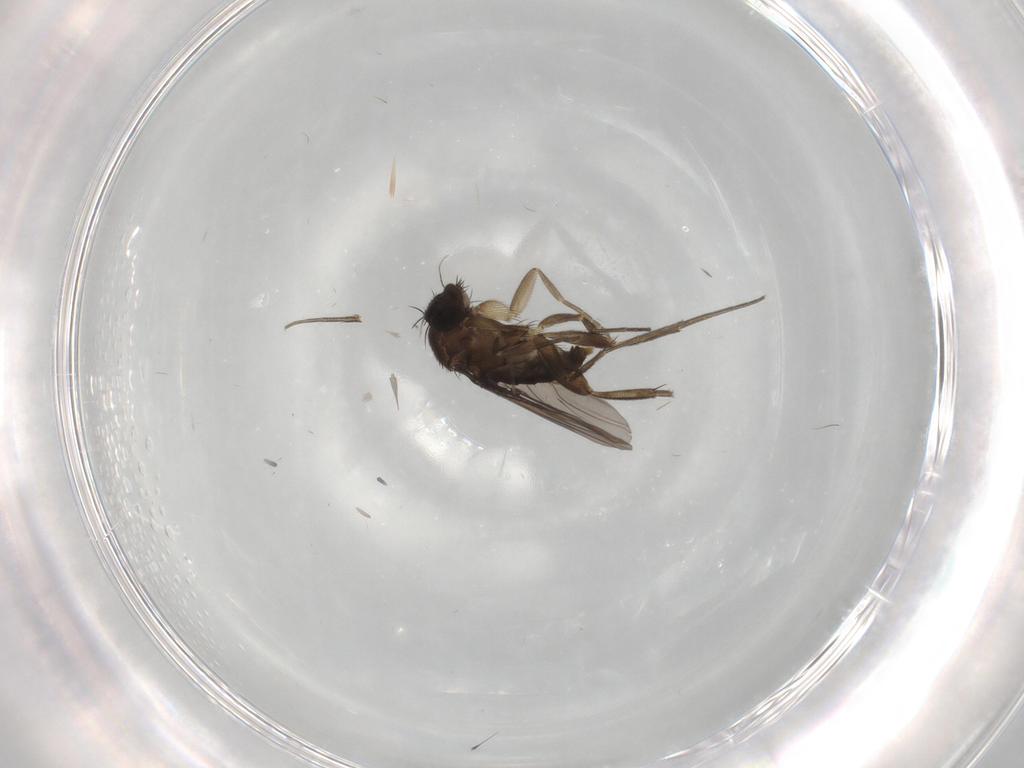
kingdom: Animalia
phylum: Arthropoda
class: Insecta
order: Diptera
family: Phoridae
